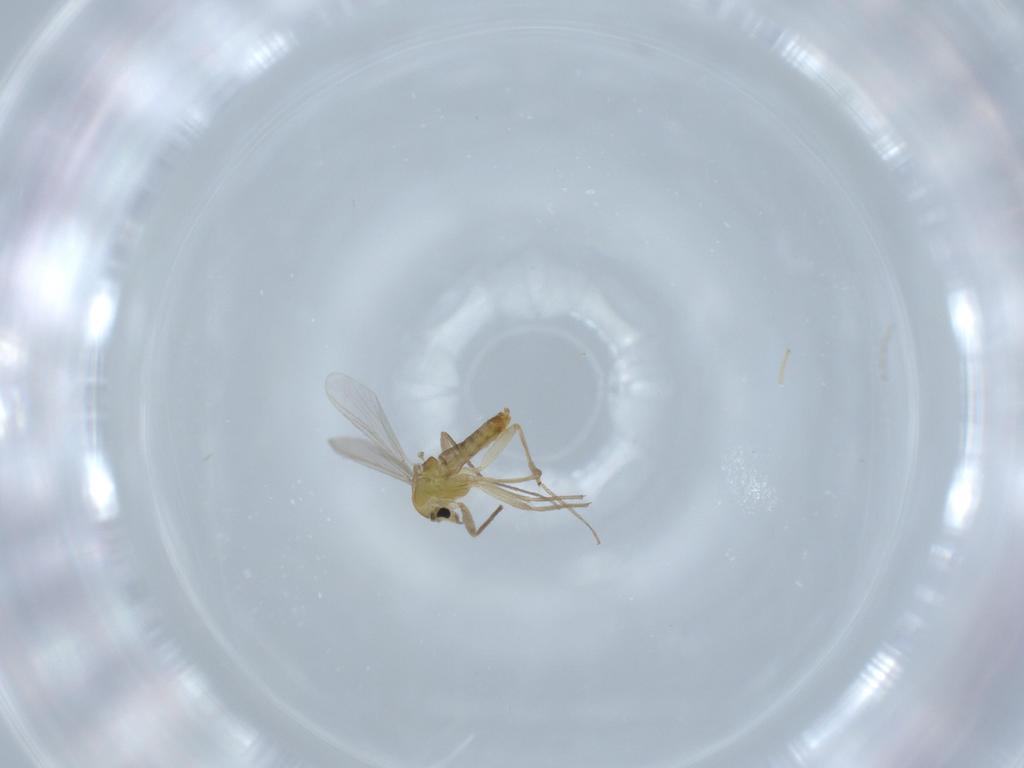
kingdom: Animalia
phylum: Arthropoda
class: Insecta
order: Diptera
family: Chironomidae
